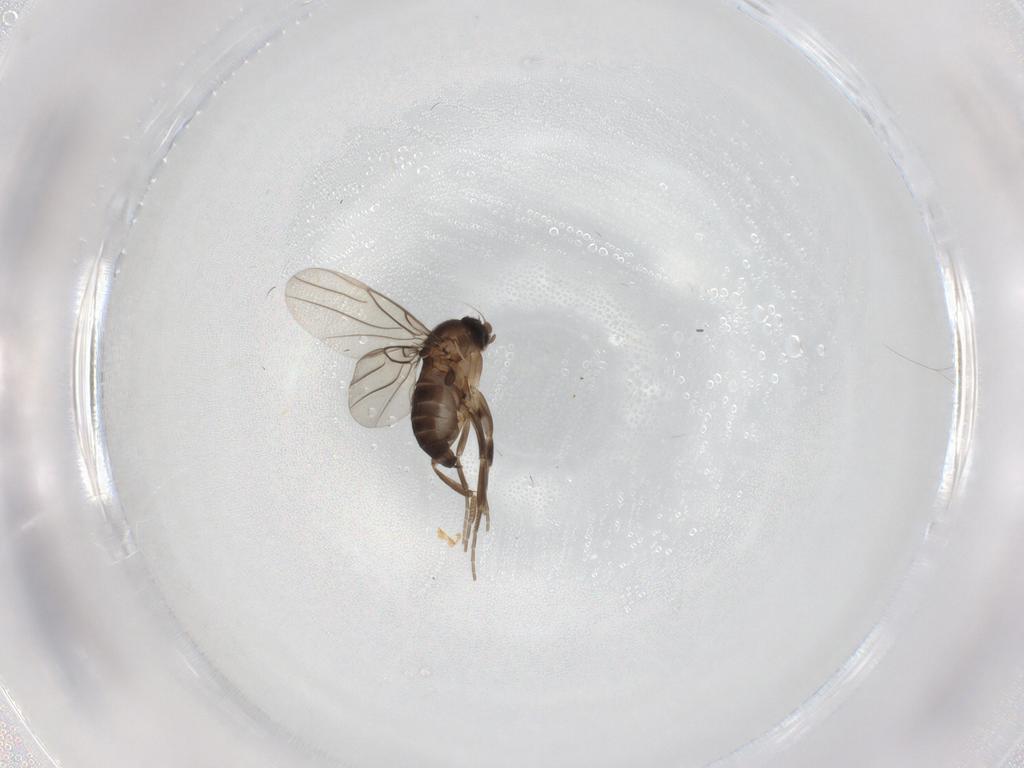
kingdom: Animalia
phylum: Arthropoda
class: Insecta
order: Diptera
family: Phoridae
